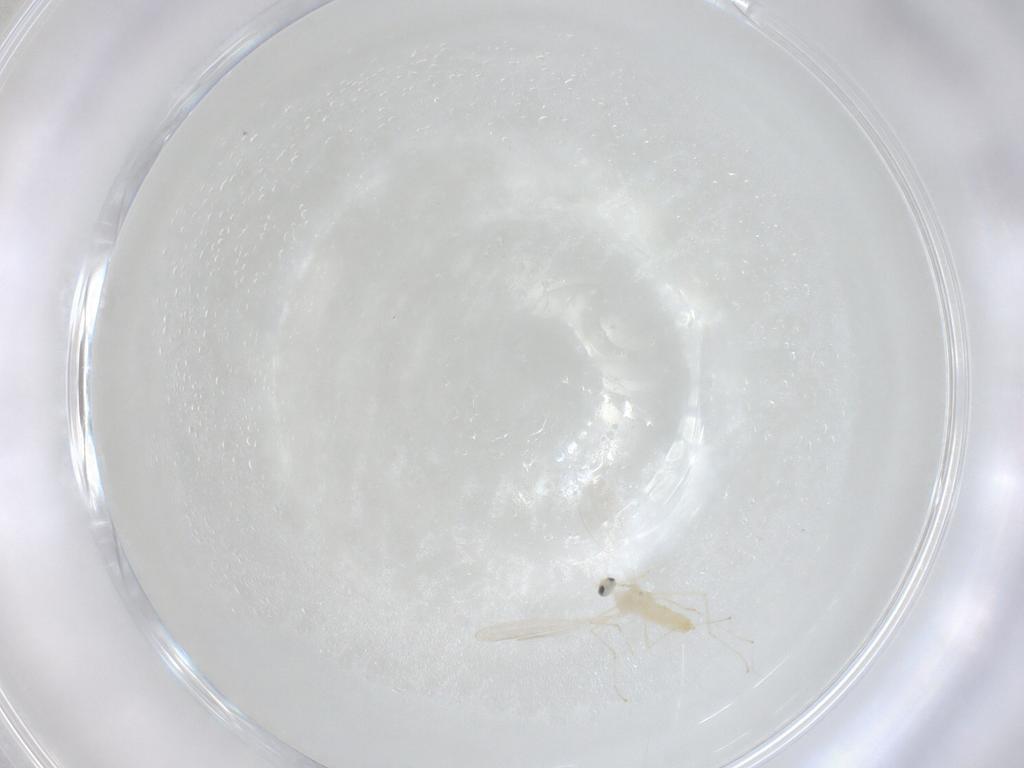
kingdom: Animalia
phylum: Arthropoda
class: Insecta
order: Diptera
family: Cecidomyiidae
